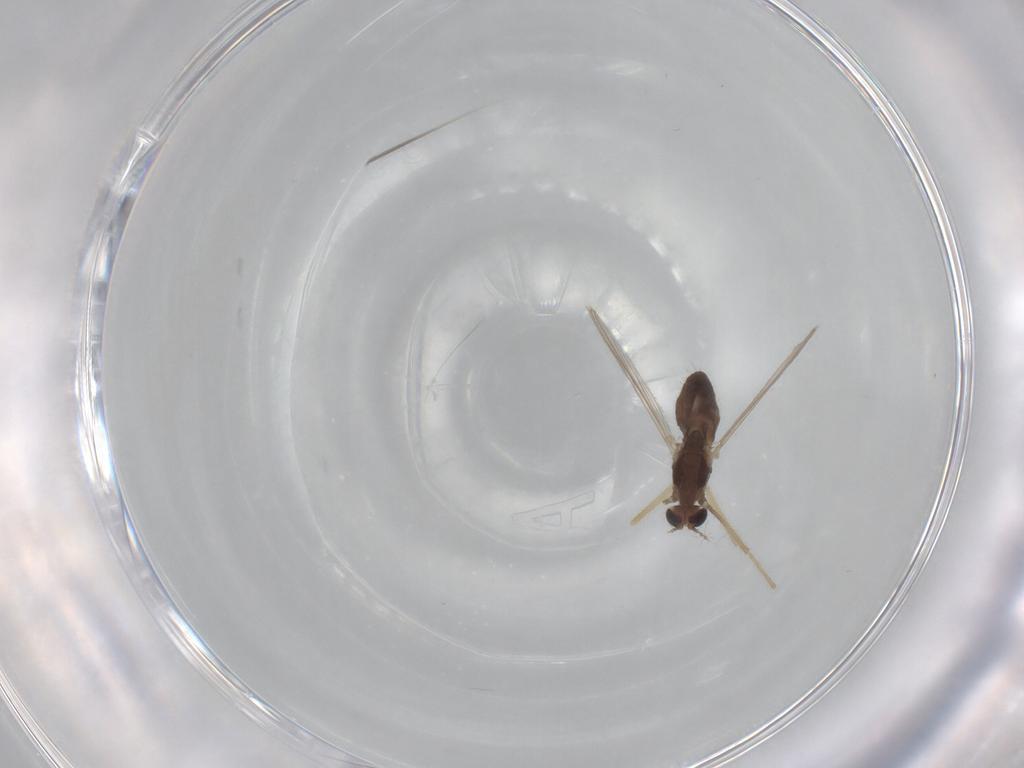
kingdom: Animalia
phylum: Arthropoda
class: Insecta
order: Diptera
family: Chironomidae
